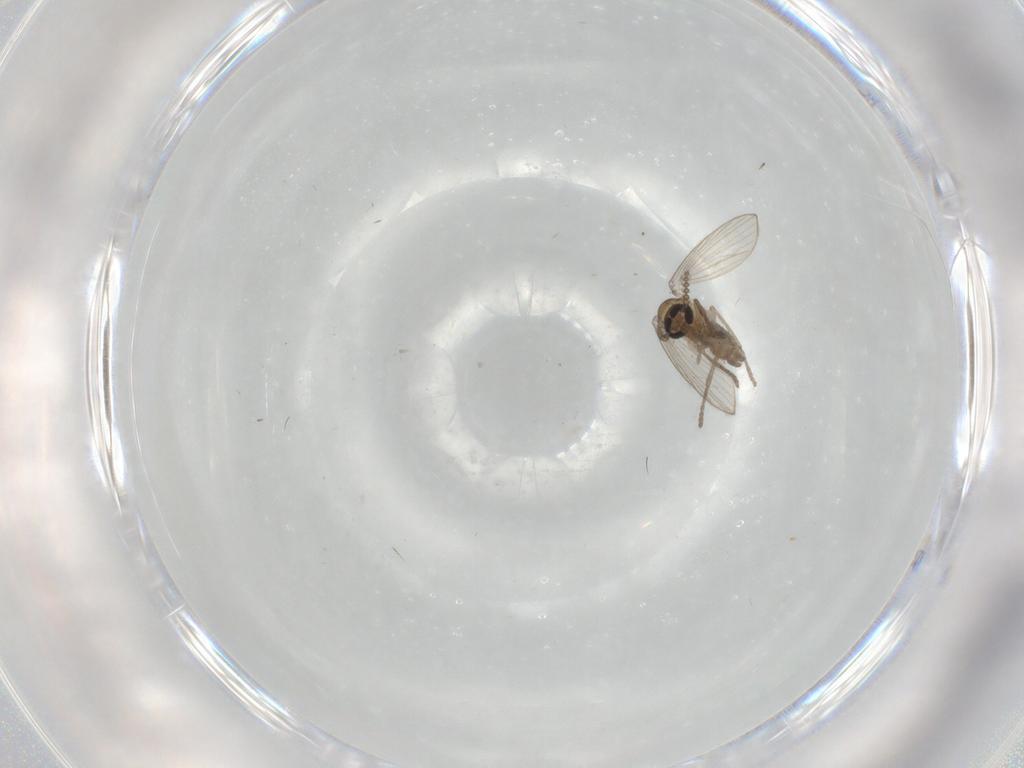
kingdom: Animalia
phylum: Arthropoda
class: Insecta
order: Diptera
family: Psychodidae
